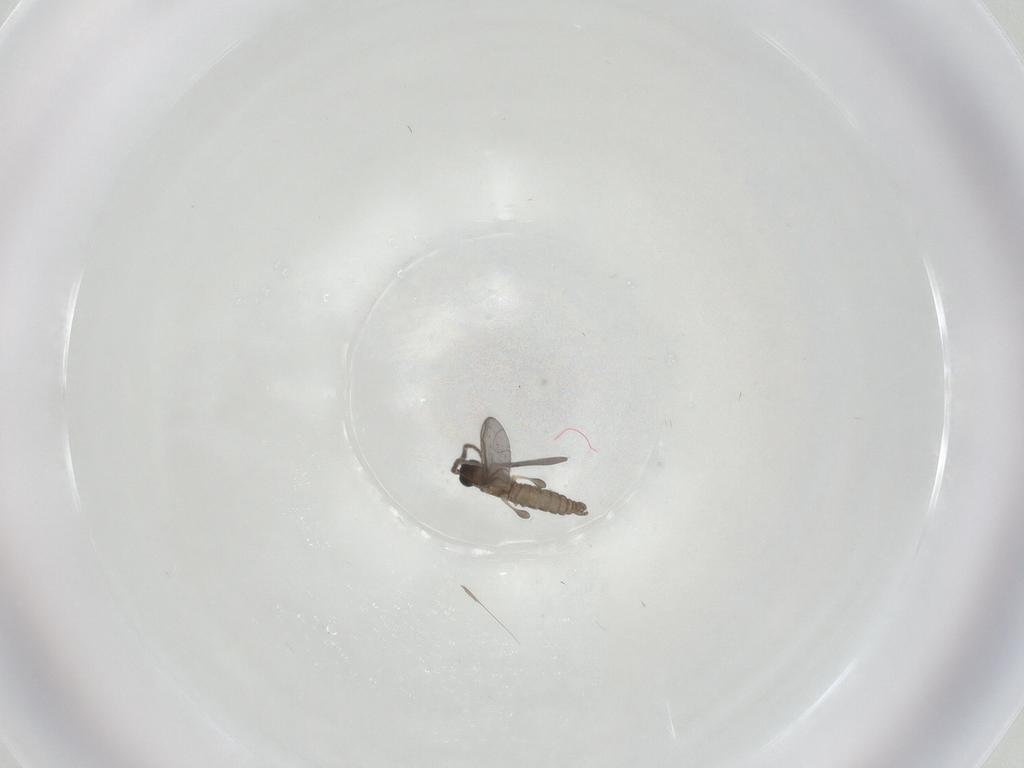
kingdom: Animalia
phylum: Arthropoda
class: Insecta
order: Diptera
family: Sciaridae
